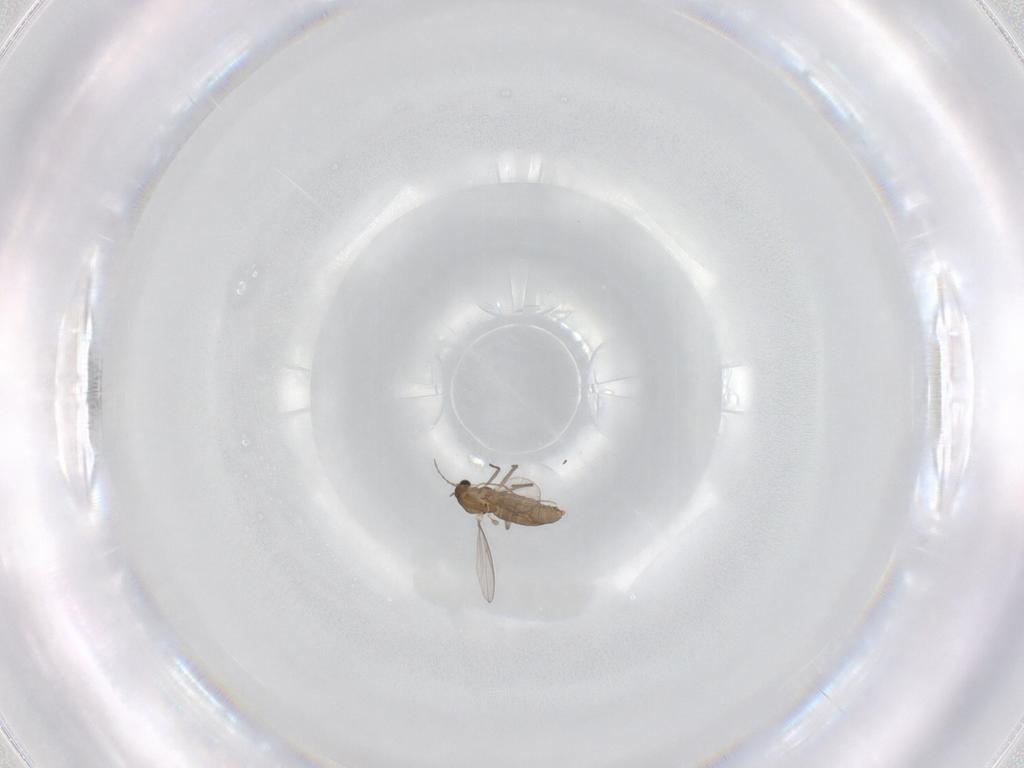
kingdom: Animalia
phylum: Arthropoda
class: Insecta
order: Diptera
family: Chironomidae
